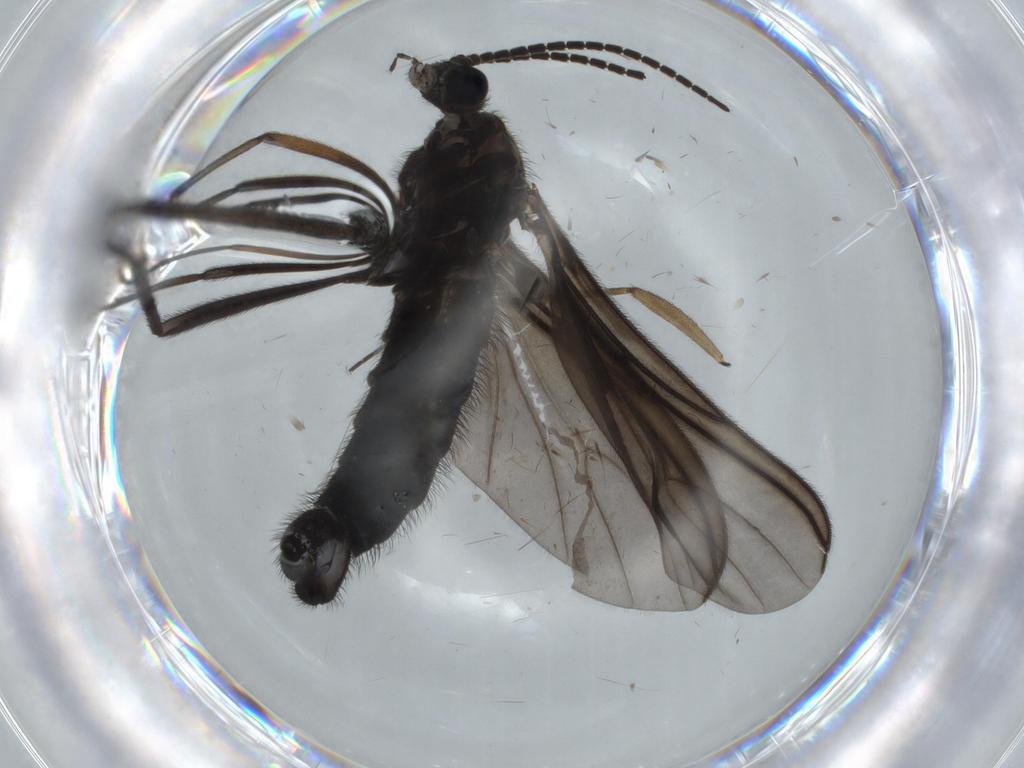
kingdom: Animalia
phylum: Arthropoda
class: Insecta
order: Diptera
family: Sciaridae
